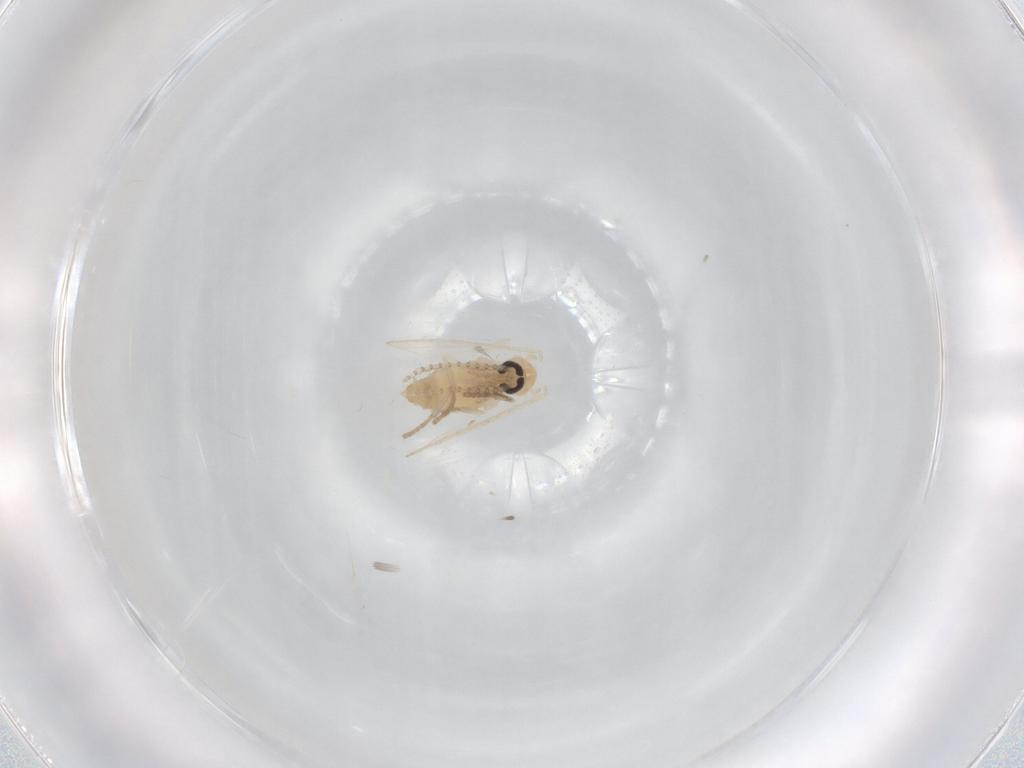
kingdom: Animalia
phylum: Arthropoda
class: Insecta
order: Diptera
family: Psychodidae
